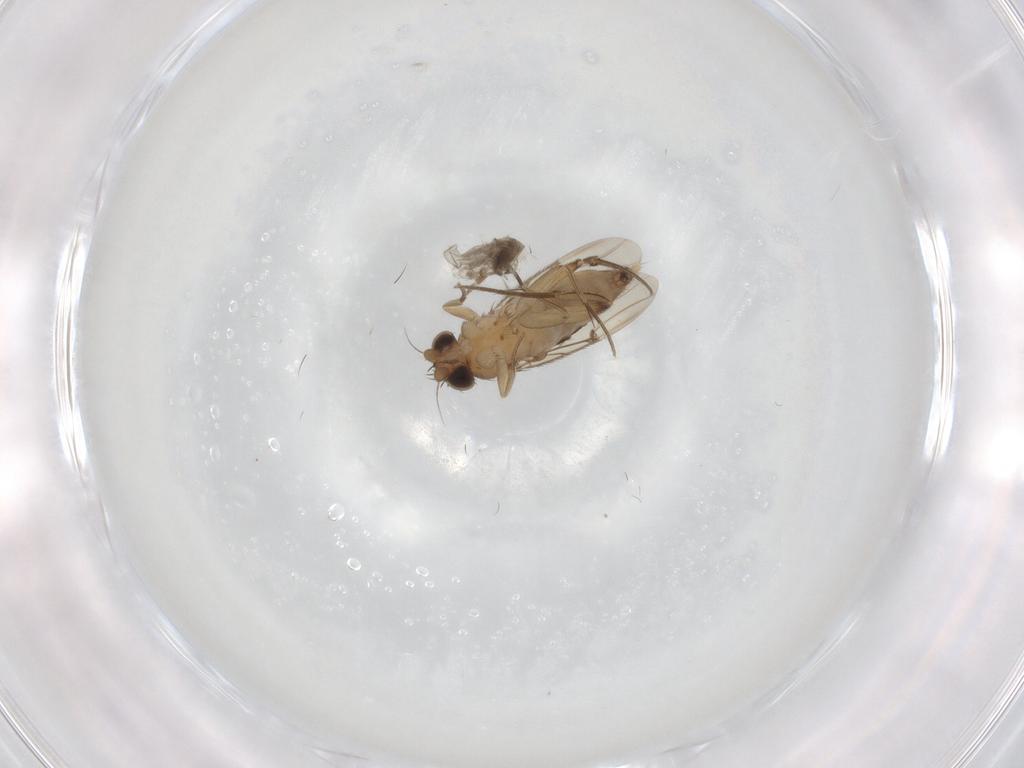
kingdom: Animalia
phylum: Arthropoda
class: Insecta
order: Diptera
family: Phoridae
